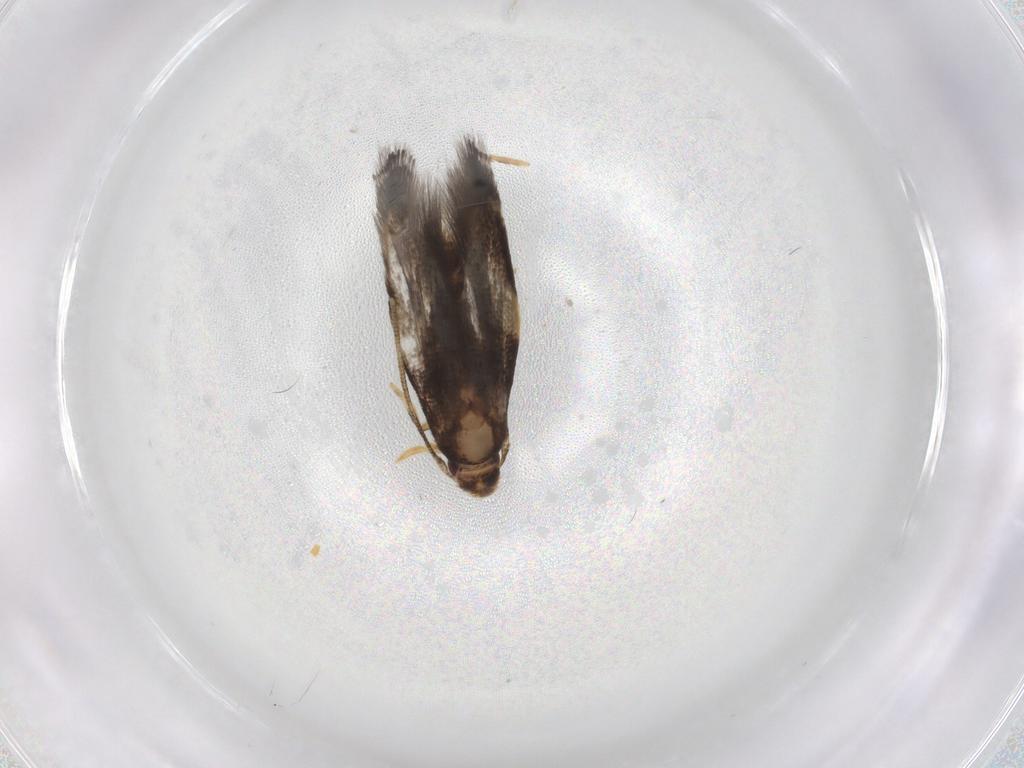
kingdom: Animalia
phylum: Arthropoda
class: Insecta
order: Lepidoptera
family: Gelechiidae
